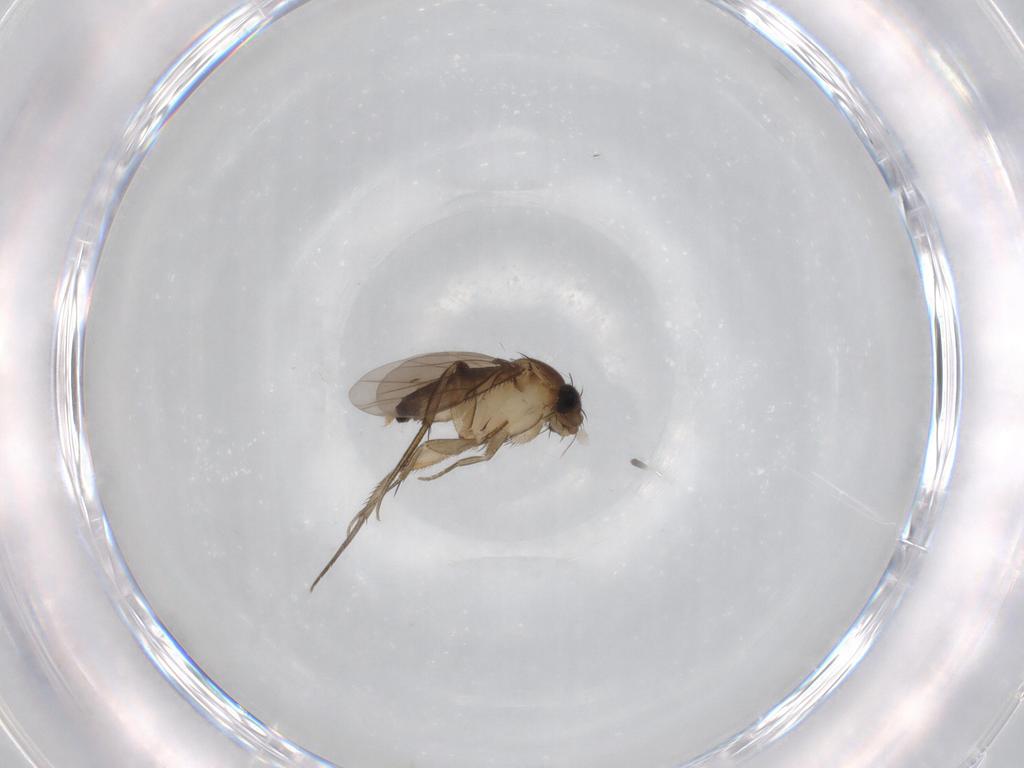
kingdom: Animalia
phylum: Arthropoda
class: Insecta
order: Diptera
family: Phoridae
